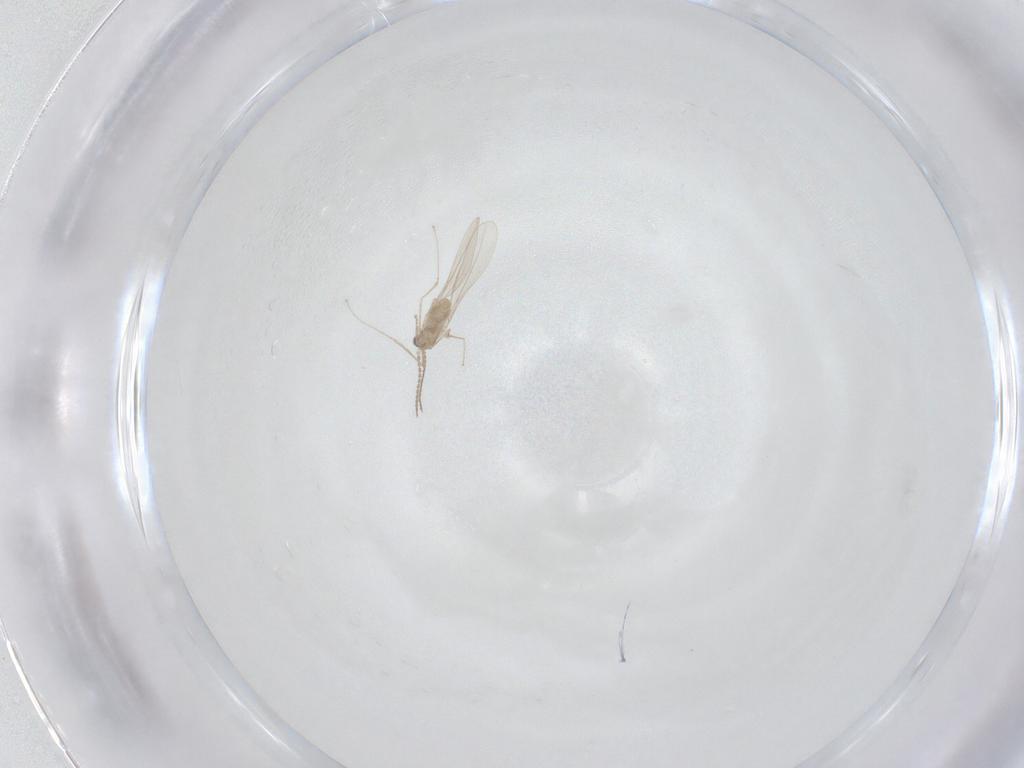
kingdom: Animalia
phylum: Arthropoda
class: Insecta
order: Diptera
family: Cecidomyiidae
